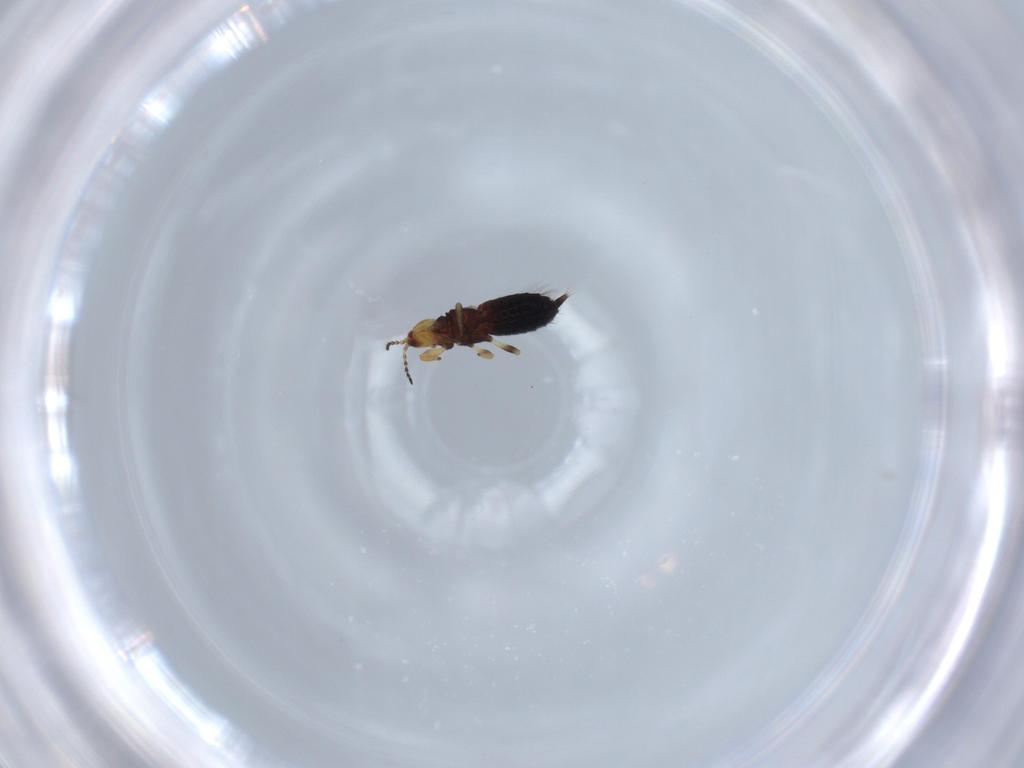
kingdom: Animalia
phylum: Arthropoda
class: Insecta
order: Thysanoptera
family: Phlaeothripidae
